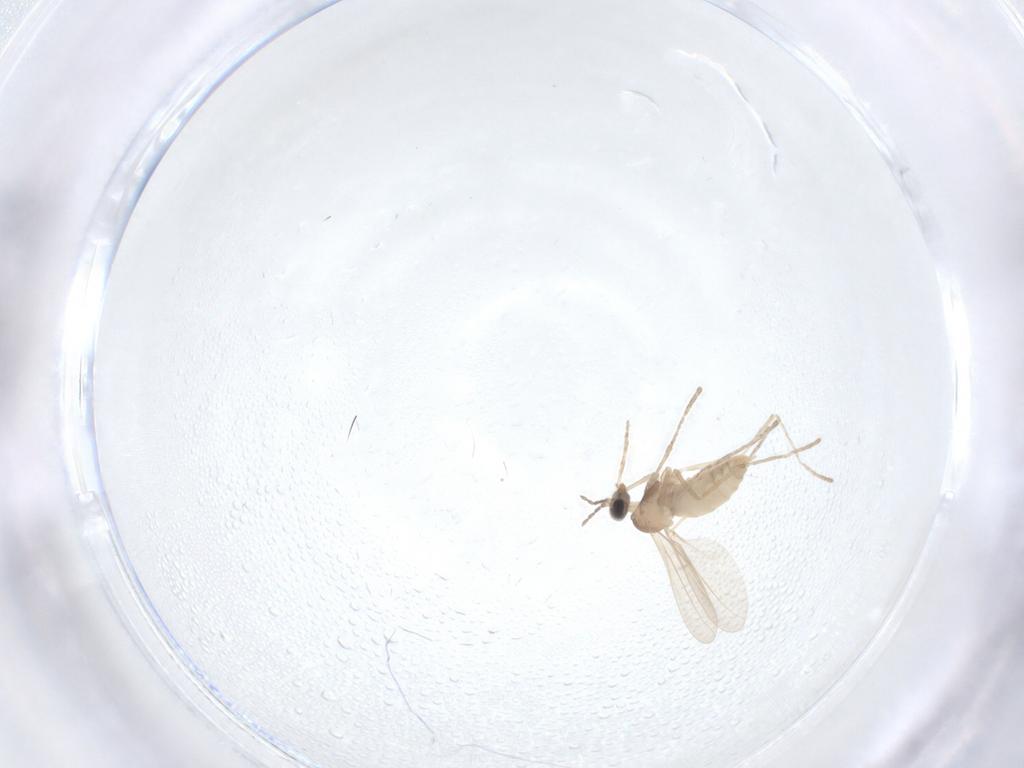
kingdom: Animalia
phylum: Arthropoda
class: Insecta
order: Diptera
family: Cecidomyiidae
